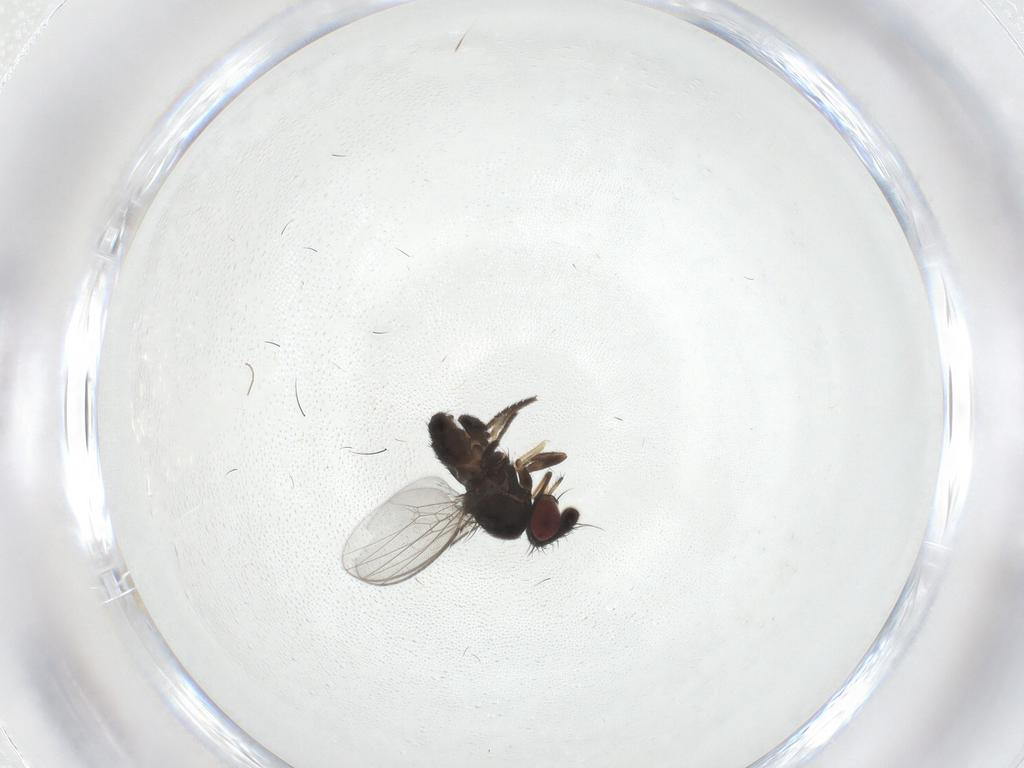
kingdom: Animalia
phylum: Arthropoda
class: Insecta
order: Diptera
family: Milichiidae
